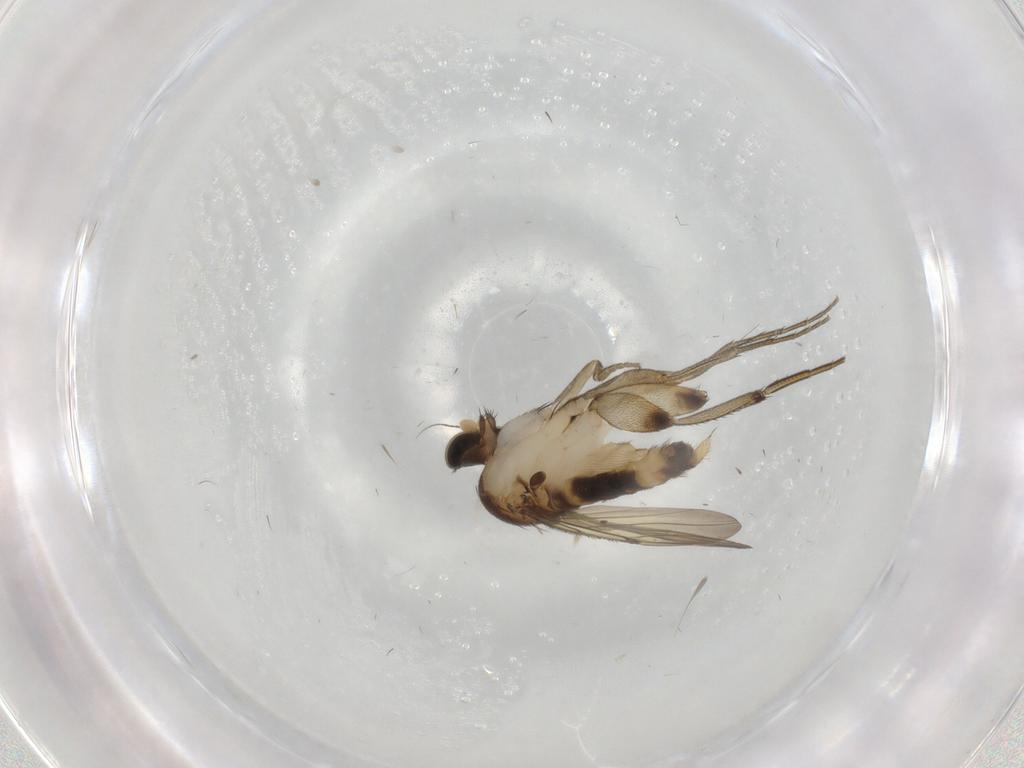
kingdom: Animalia
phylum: Arthropoda
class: Insecta
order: Diptera
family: Phoridae
